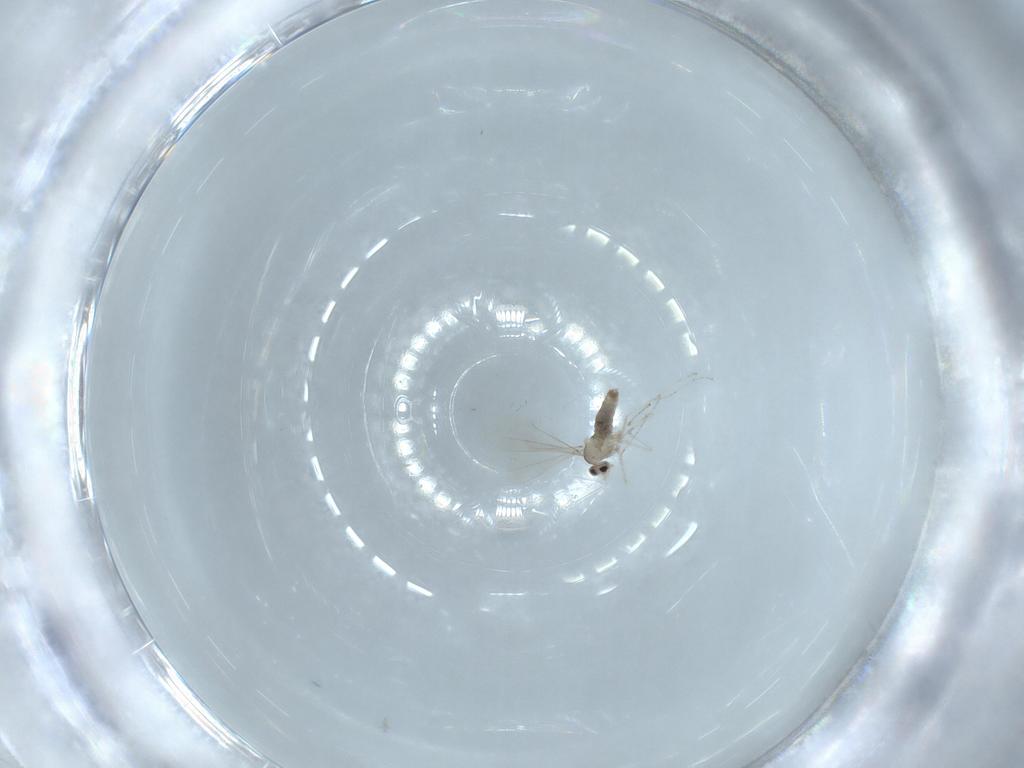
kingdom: Animalia
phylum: Arthropoda
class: Insecta
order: Diptera
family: Cecidomyiidae
